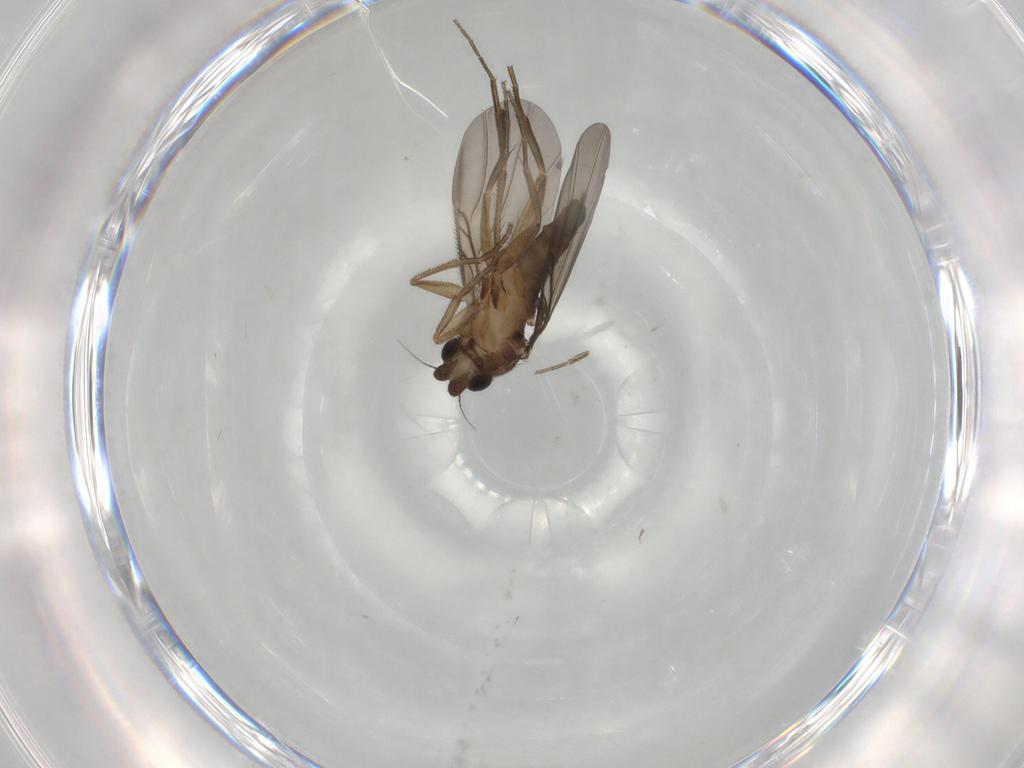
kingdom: Animalia
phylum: Arthropoda
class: Insecta
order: Diptera
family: Phoridae
